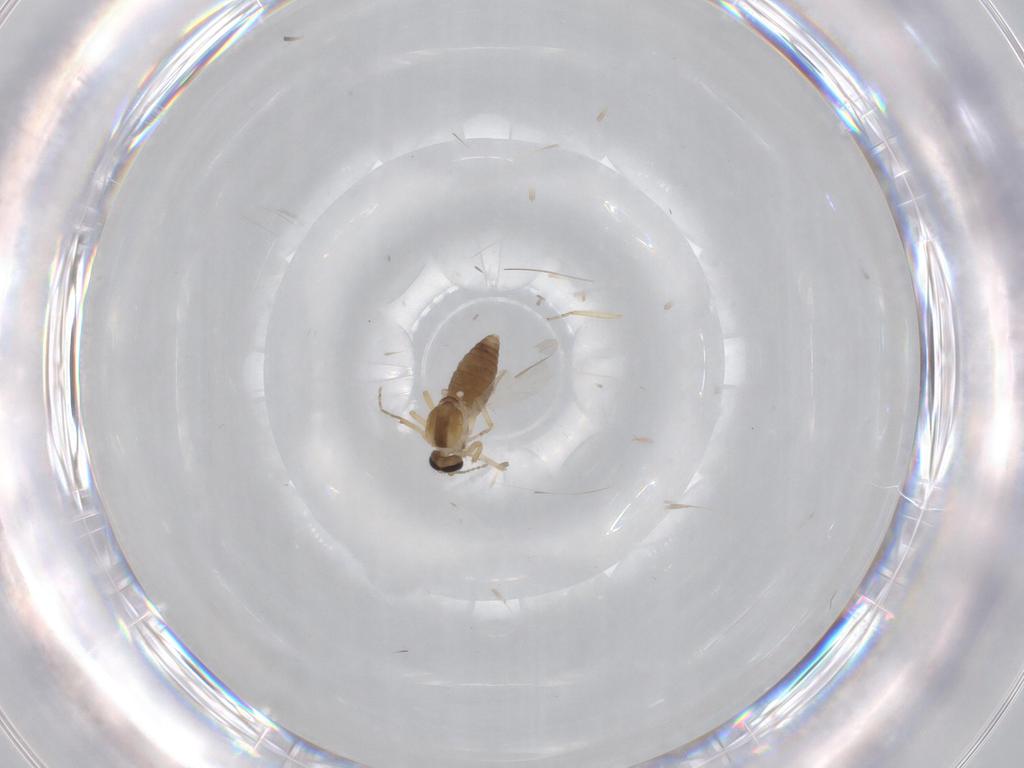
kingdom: Animalia
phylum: Arthropoda
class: Insecta
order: Diptera
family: Ceratopogonidae
